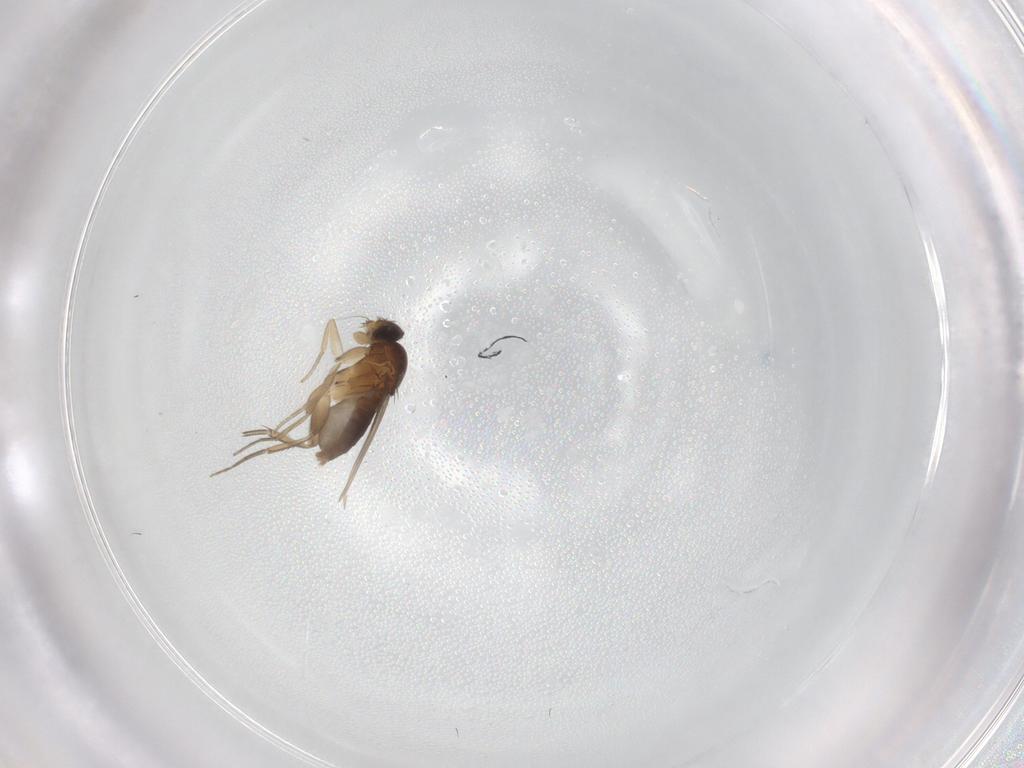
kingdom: Animalia
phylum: Arthropoda
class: Insecta
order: Diptera
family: Phoridae
